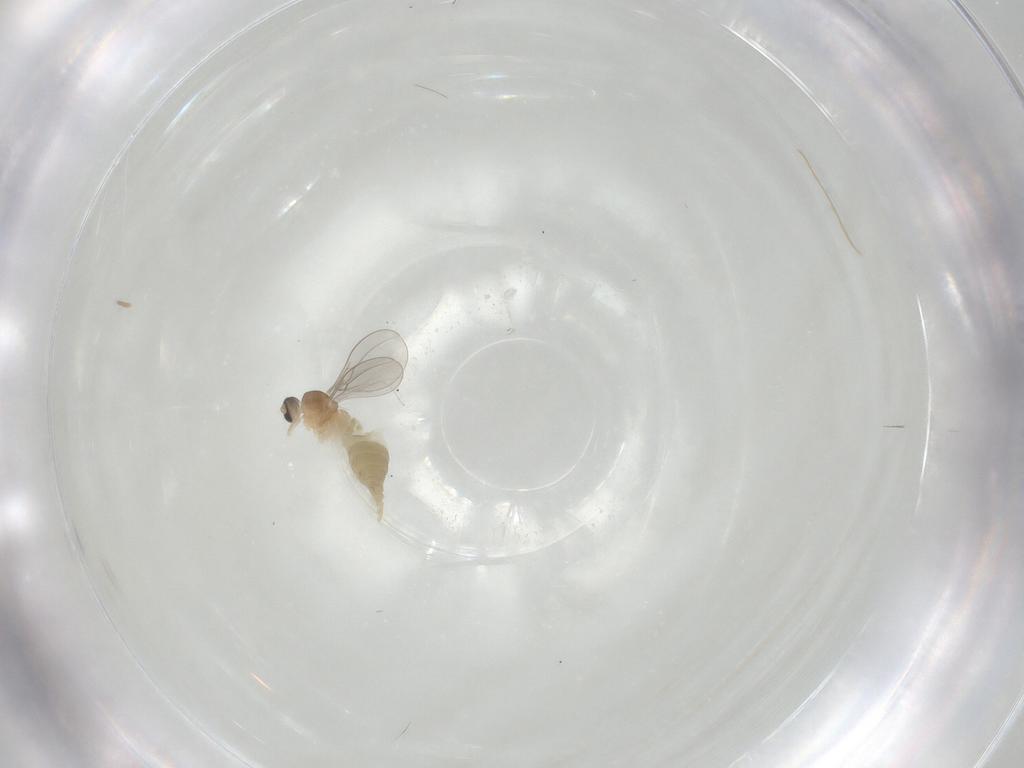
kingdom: Animalia
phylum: Arthropoda
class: Insecta
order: Diptera
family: Cecidomyiidae
